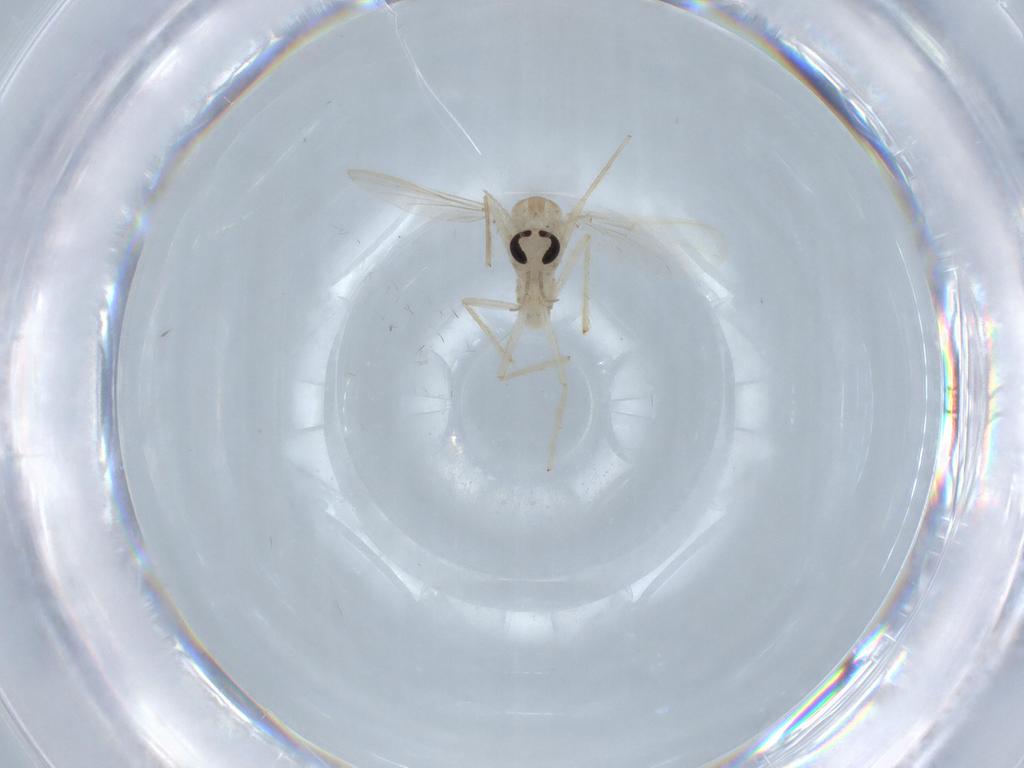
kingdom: Animalia
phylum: Arthropoda
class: Insecta
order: Diptera
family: Chironomidae
